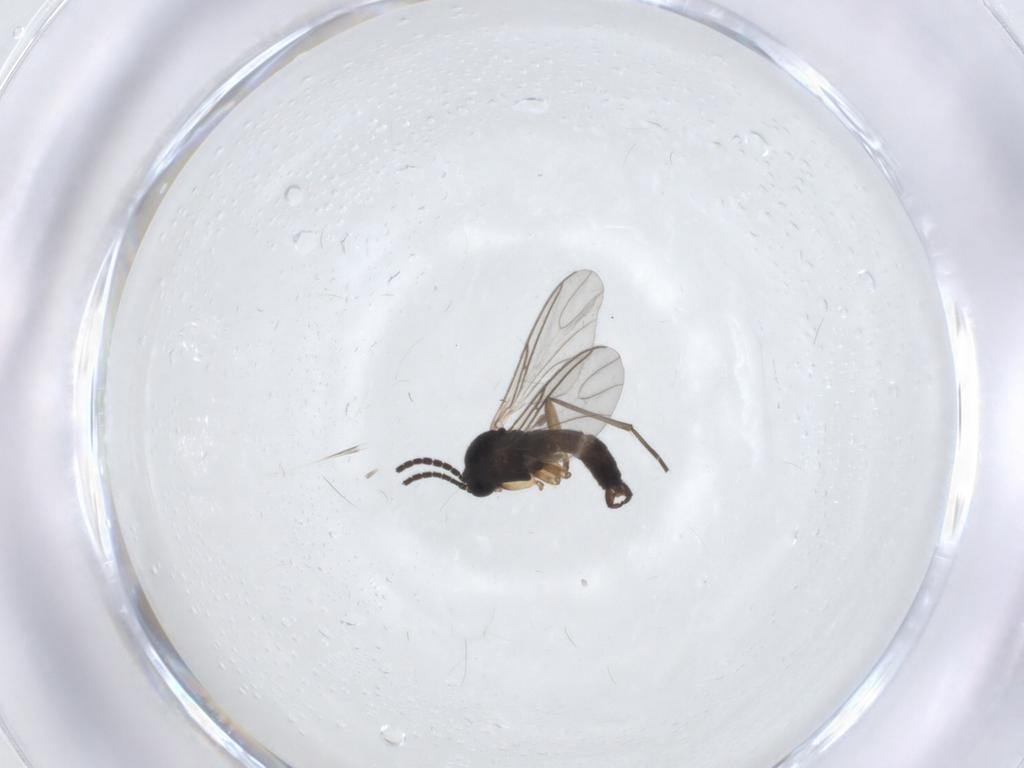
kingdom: Animalia
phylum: Arthropoda
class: Insecta
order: Diptera
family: Sciaridae
